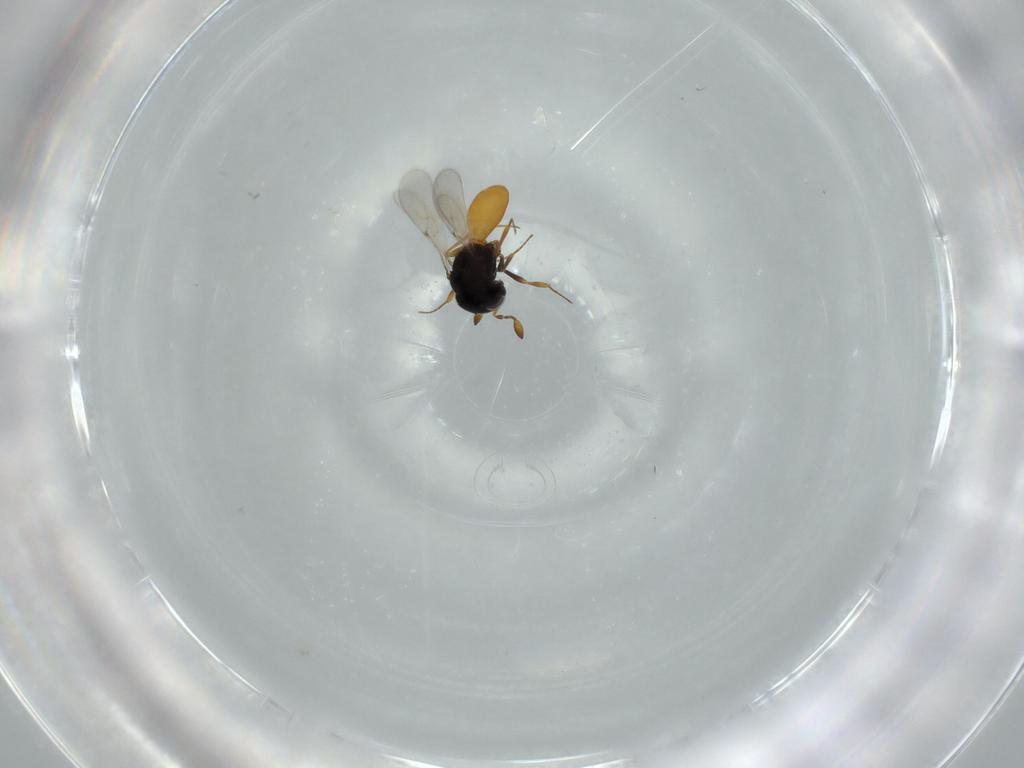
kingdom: Animalia
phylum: Arthropoda
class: Insecta
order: Hymenoptera
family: Scelionidae
